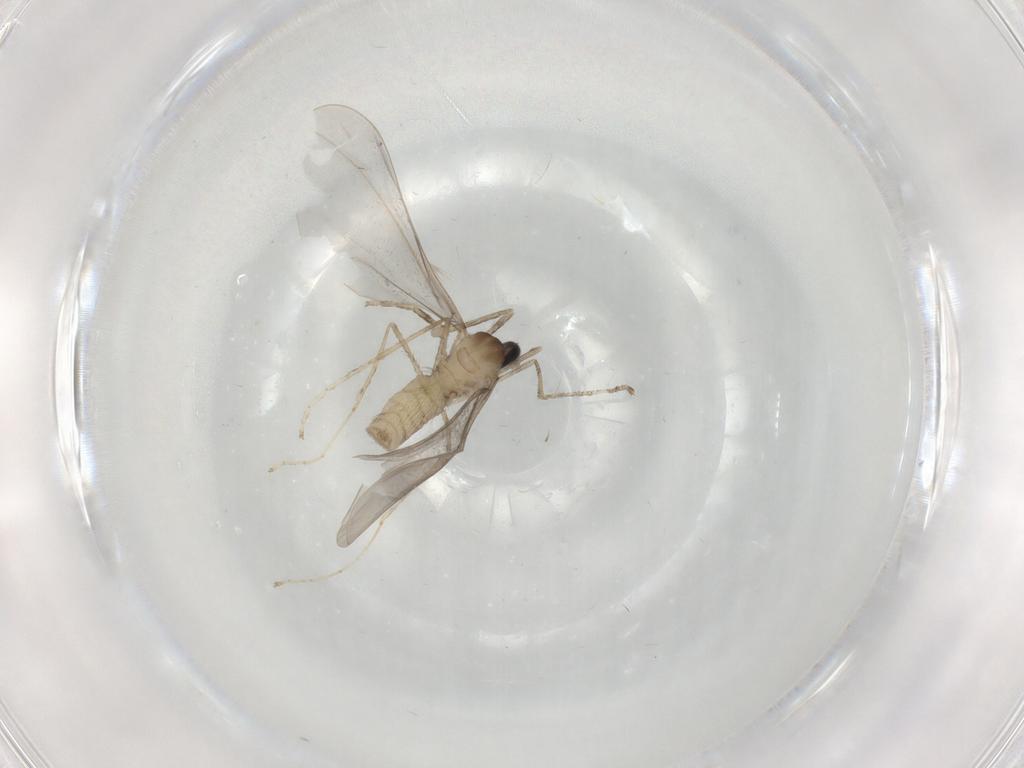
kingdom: Animalia
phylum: Arthropoda
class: Insecta
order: Diptera
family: Cecidomyiidae
